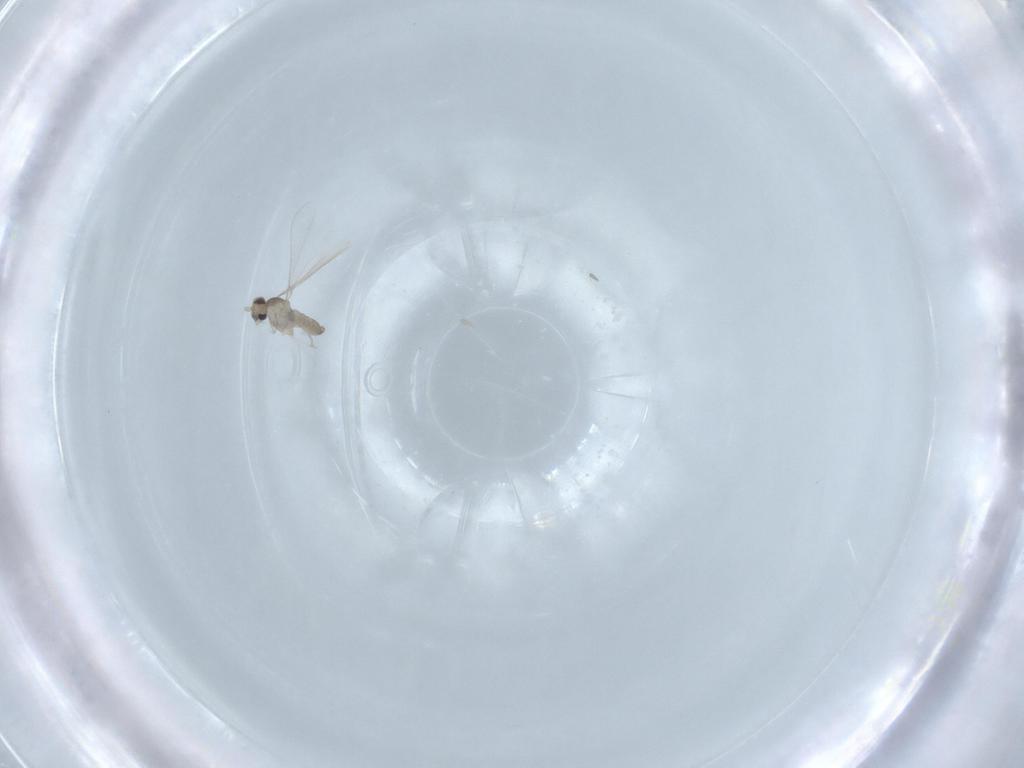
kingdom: Animalia
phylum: Arthropoda
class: Insecta
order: Diptera
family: Cecidomyiidae
